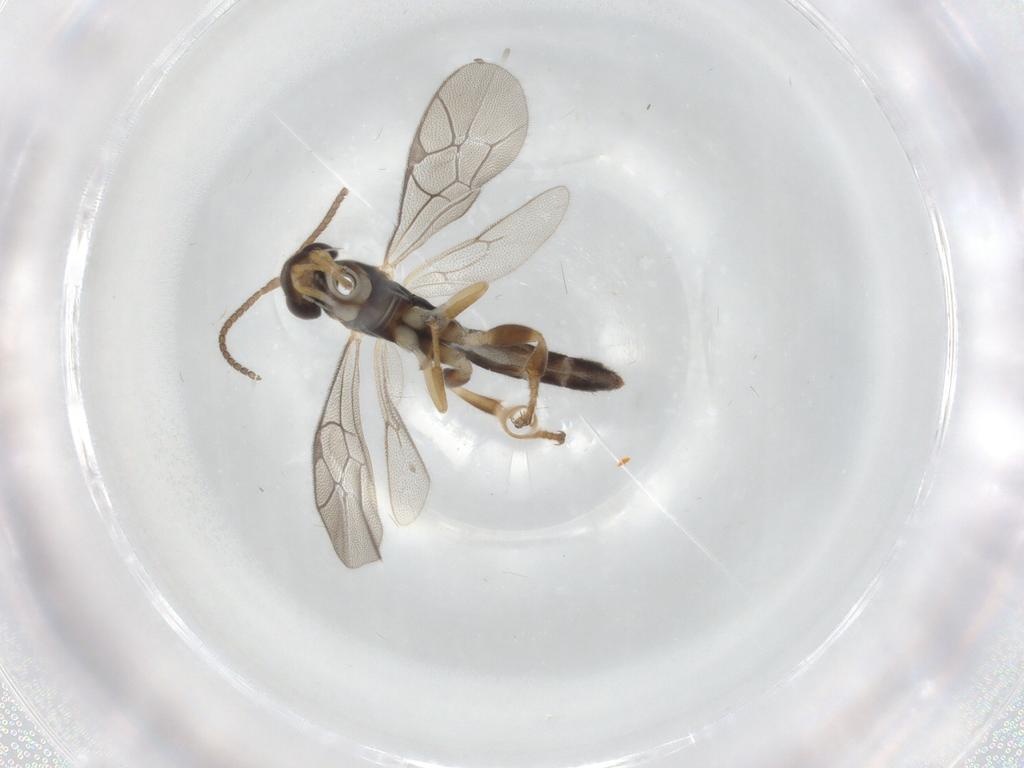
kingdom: Animalia
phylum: Arthropoda
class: Insecta
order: Hymenoptera
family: Ichneumonidae
